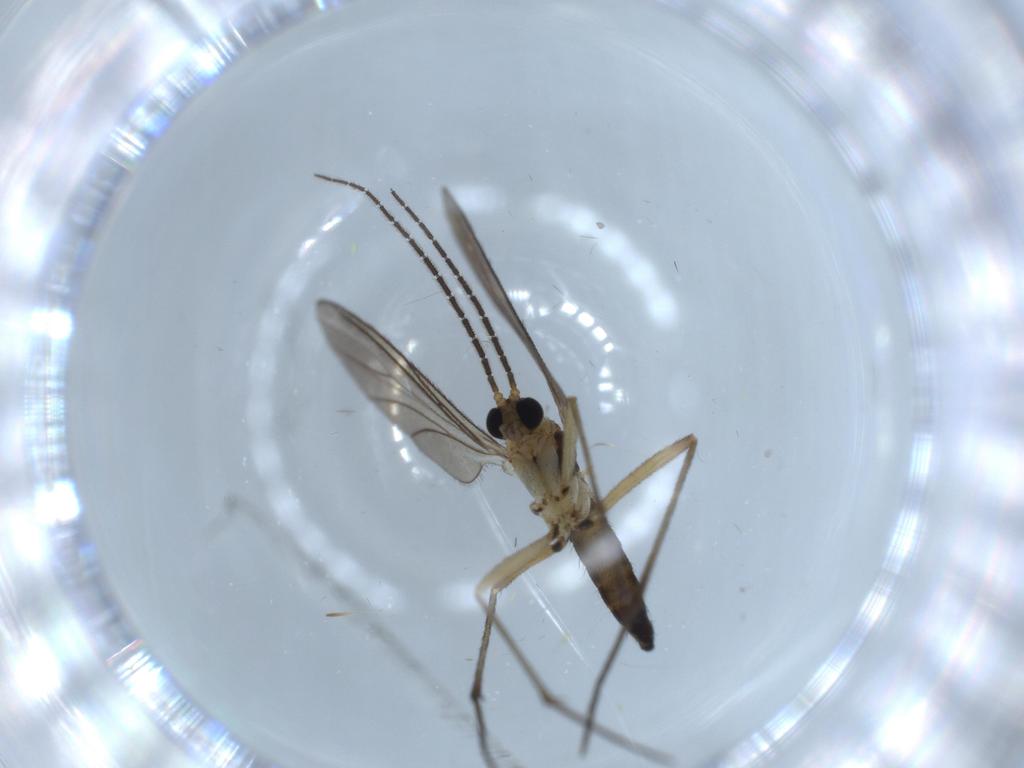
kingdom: Animalia
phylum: Arthropoda
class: Insecta
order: Diptera
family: Sciaridae
